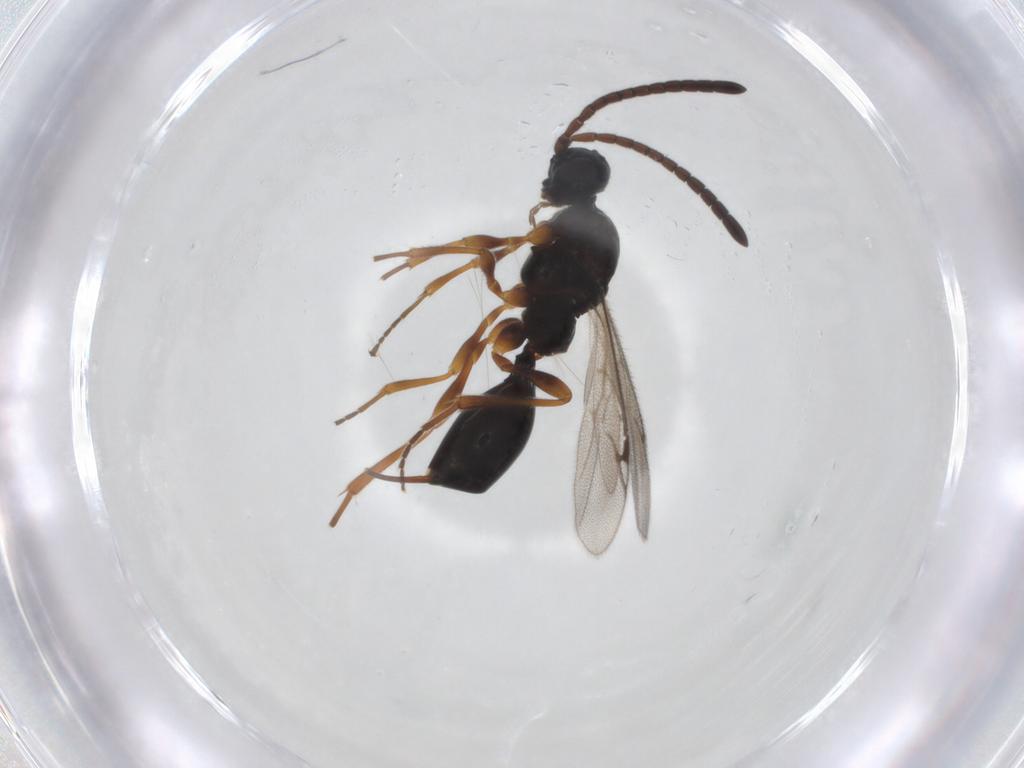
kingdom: Animalia
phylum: Arthropoda
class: Insecta
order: Hymenoptera
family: Proctotrupidae
